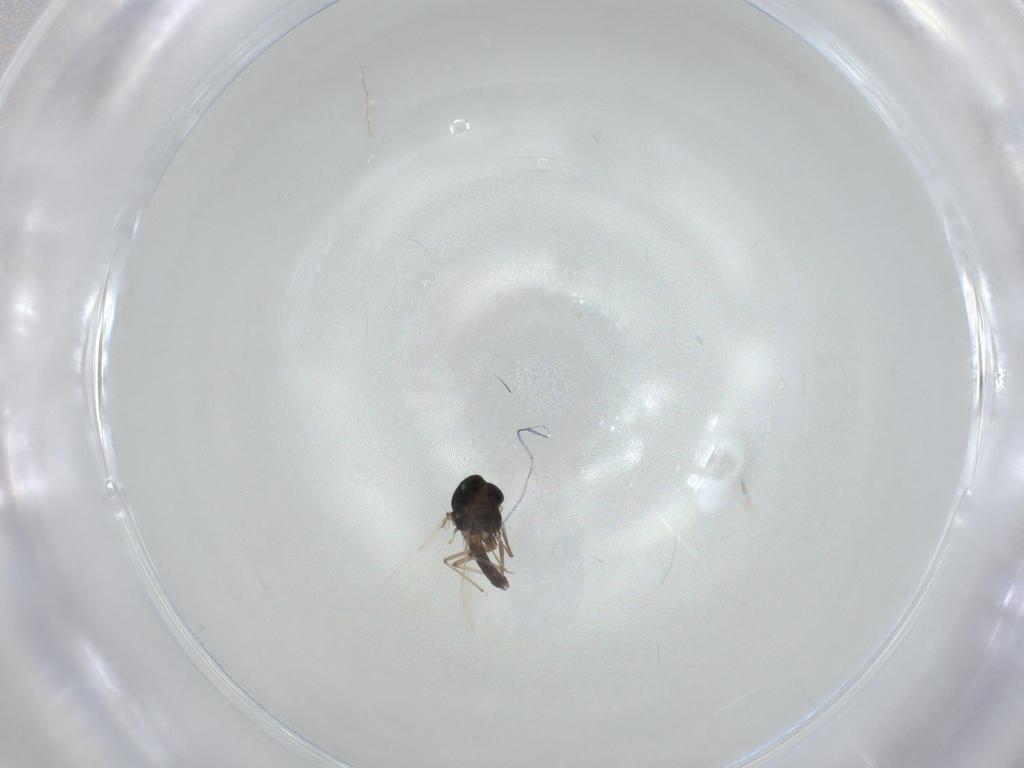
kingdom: Animalia
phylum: Arthropoda
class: Insecta
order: Diptera
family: Chironomidae
